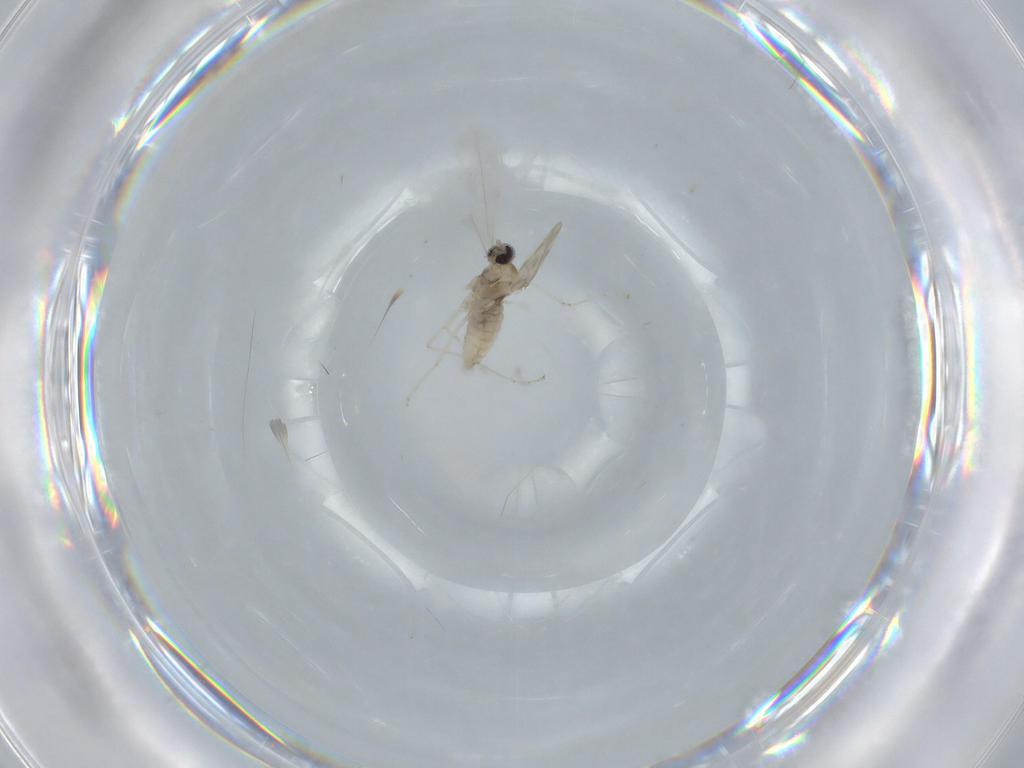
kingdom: Animalia
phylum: Arthropoda
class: Insecta
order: Diptera
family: Cecidomyiidae
